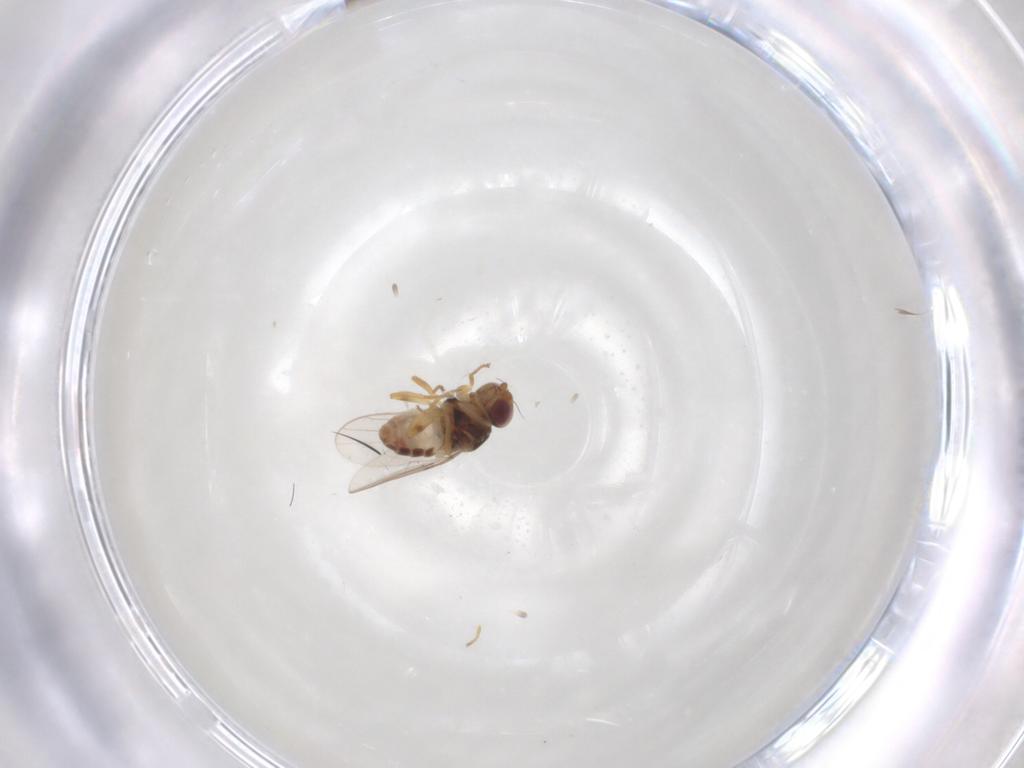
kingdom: Animalia
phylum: Arthropoda
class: Insecta
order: Diptera
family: Chloropidae
